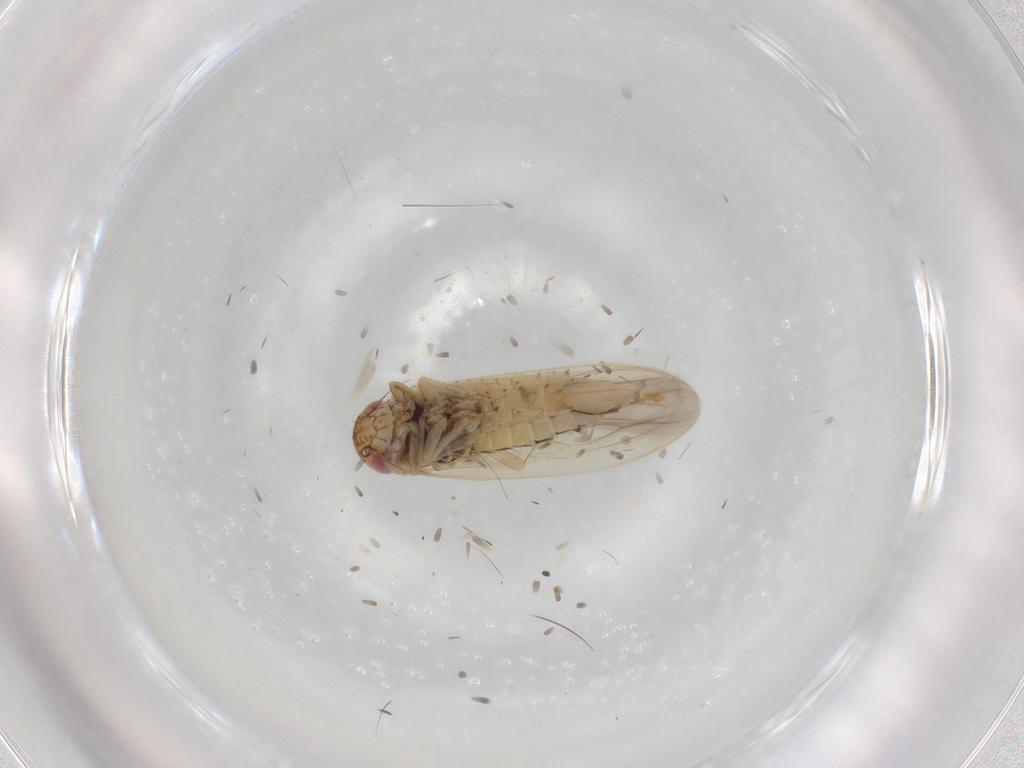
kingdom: Animalia
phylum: Arthropoda
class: Insecta
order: Hemiptera
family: Cicadellidae
